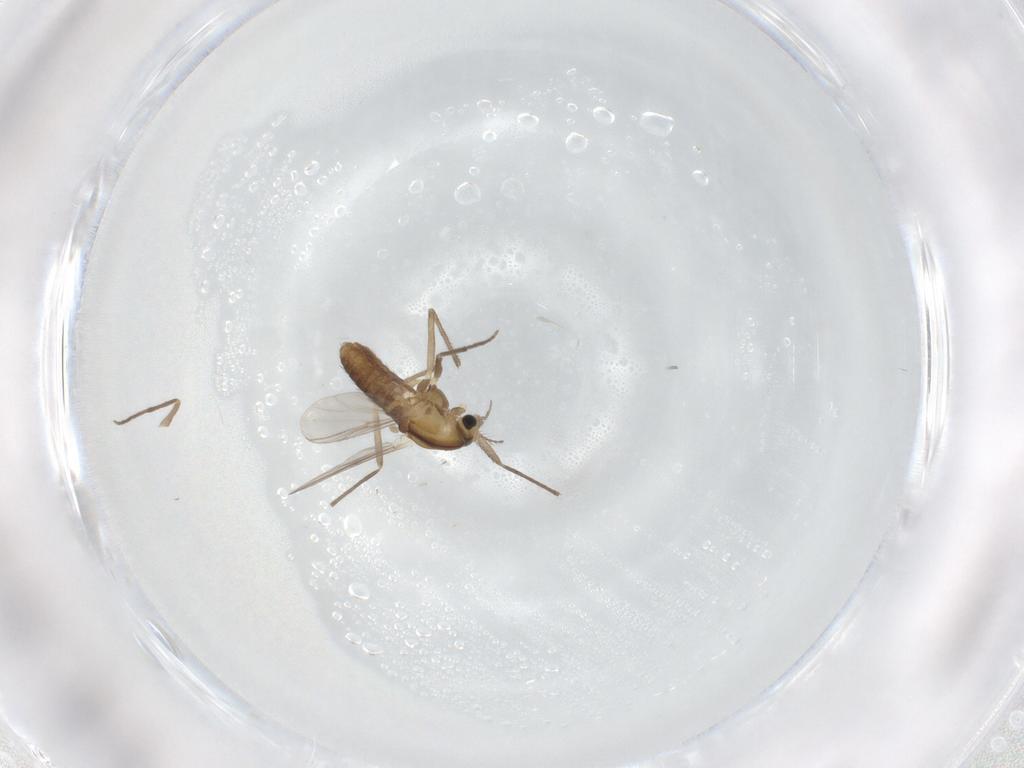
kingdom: Animalia
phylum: Arthropoda
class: Insecta
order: Diptera
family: Chironomidae
